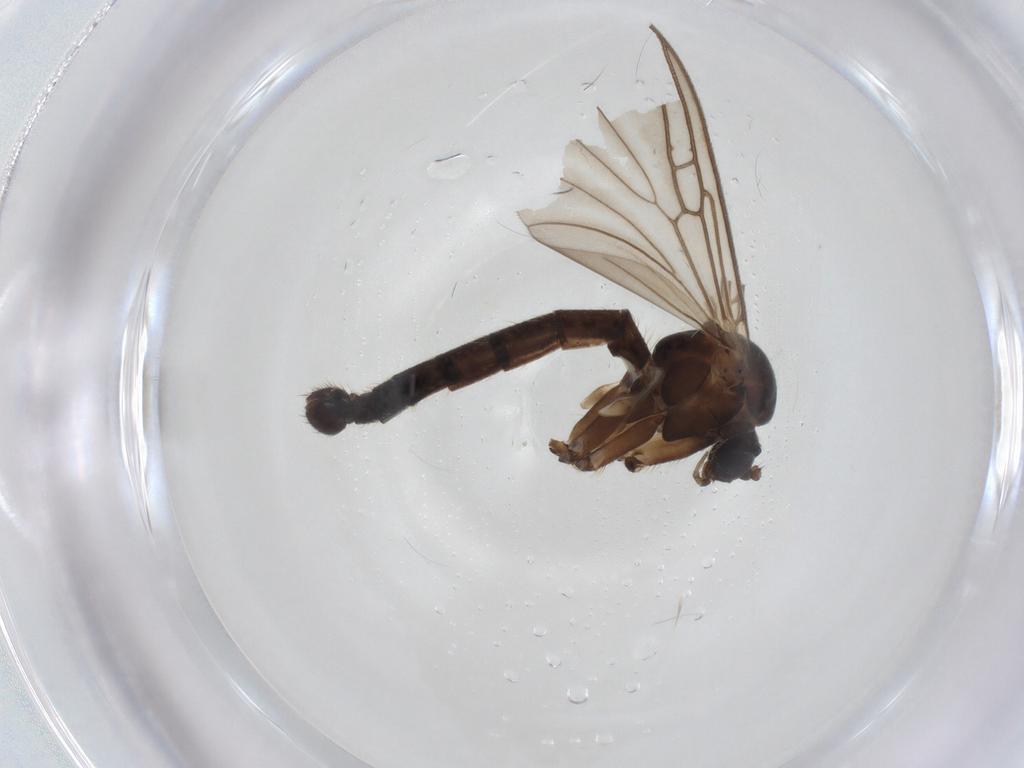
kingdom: Animalia
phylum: Arthropoda
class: Insecta
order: Diptera
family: Mycetophilidae
